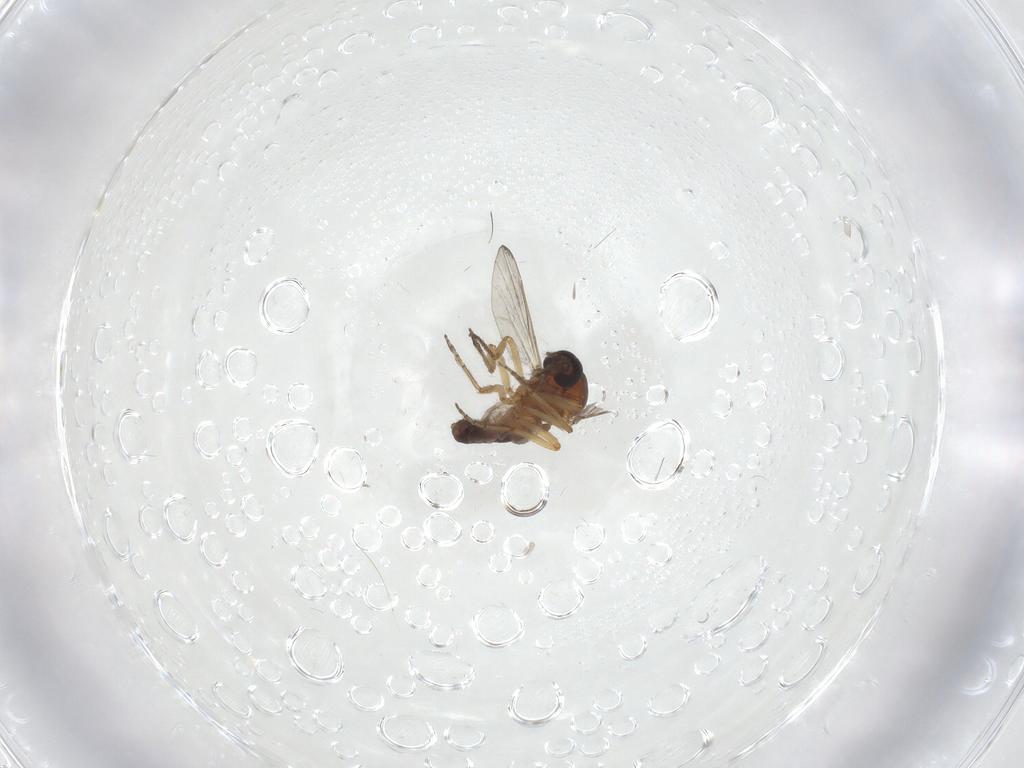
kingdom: Animalia
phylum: Arthropoda
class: Insecta
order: Diptera
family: Ceratopogonidae
